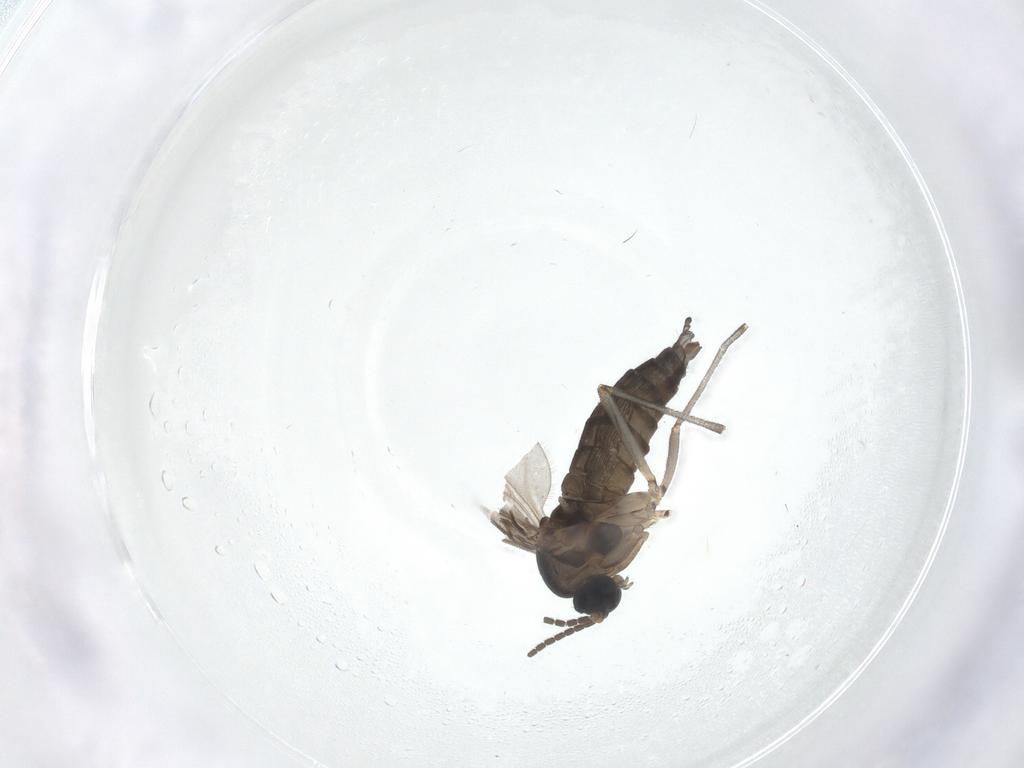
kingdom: Animalia
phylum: Arthropoda
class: Insecta
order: Diptera
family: Sciaridae
